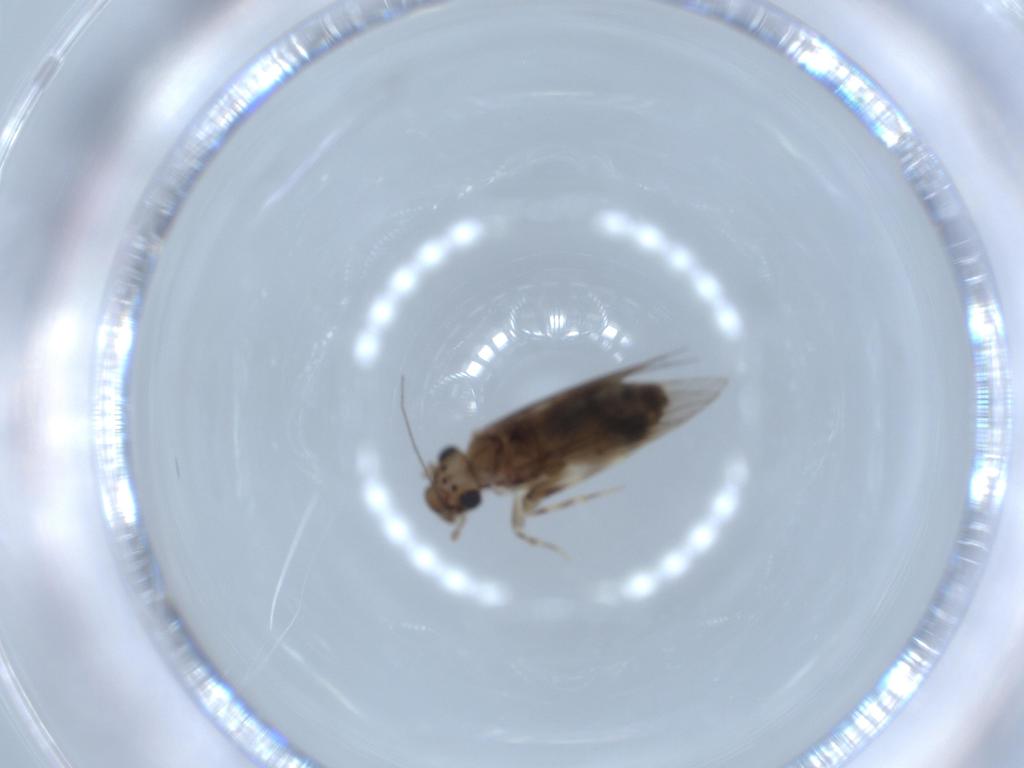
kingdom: Animalia
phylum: Arthropoda
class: Insecta
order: Psocodea
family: Lepidopsocidae
